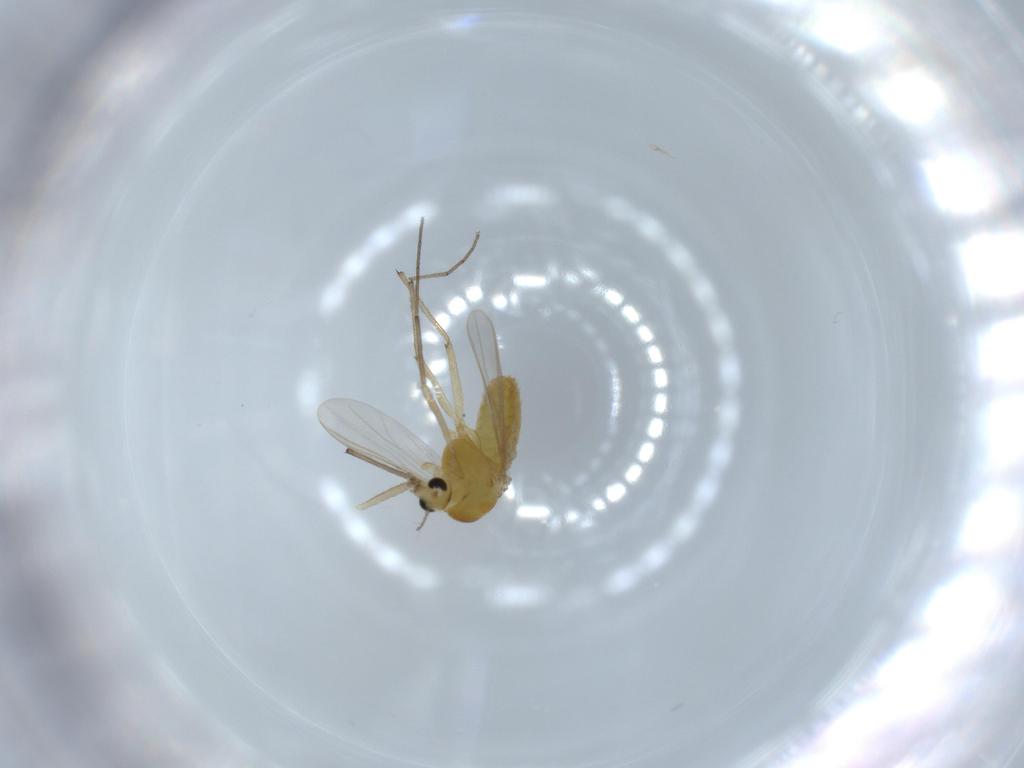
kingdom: Animalia
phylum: Arthropoda
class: Insecta
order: Diptera
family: Chironomidae
